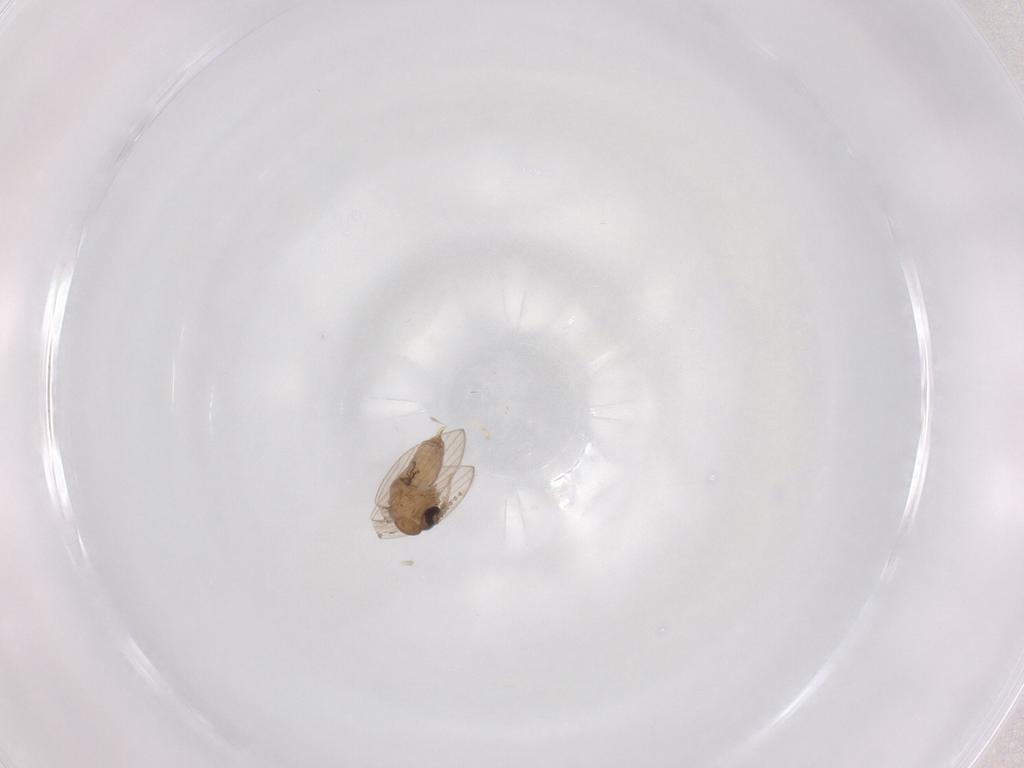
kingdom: Animalia
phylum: Arthropoda
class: Insecta
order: Diptera
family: Psychodidae
